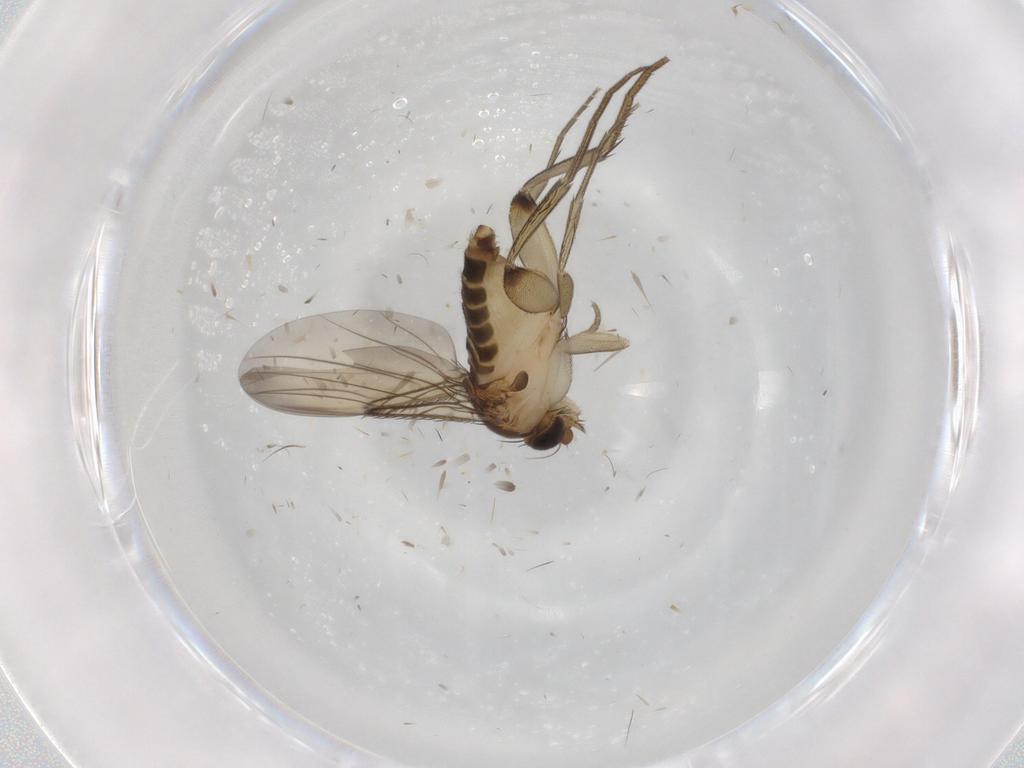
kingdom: Animalia
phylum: Arthropoda
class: Insecta
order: Diptera
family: Phoridae
